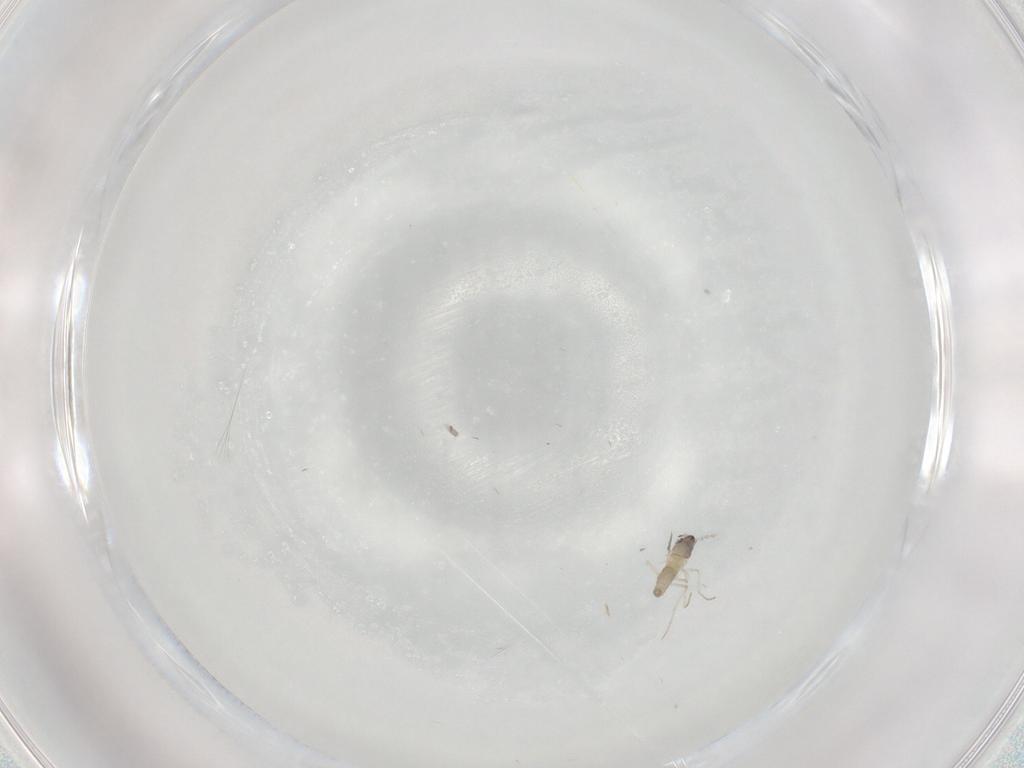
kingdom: Animalia
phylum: Arthropoda
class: Insecta
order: Diptera
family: Cecidomyiidae
